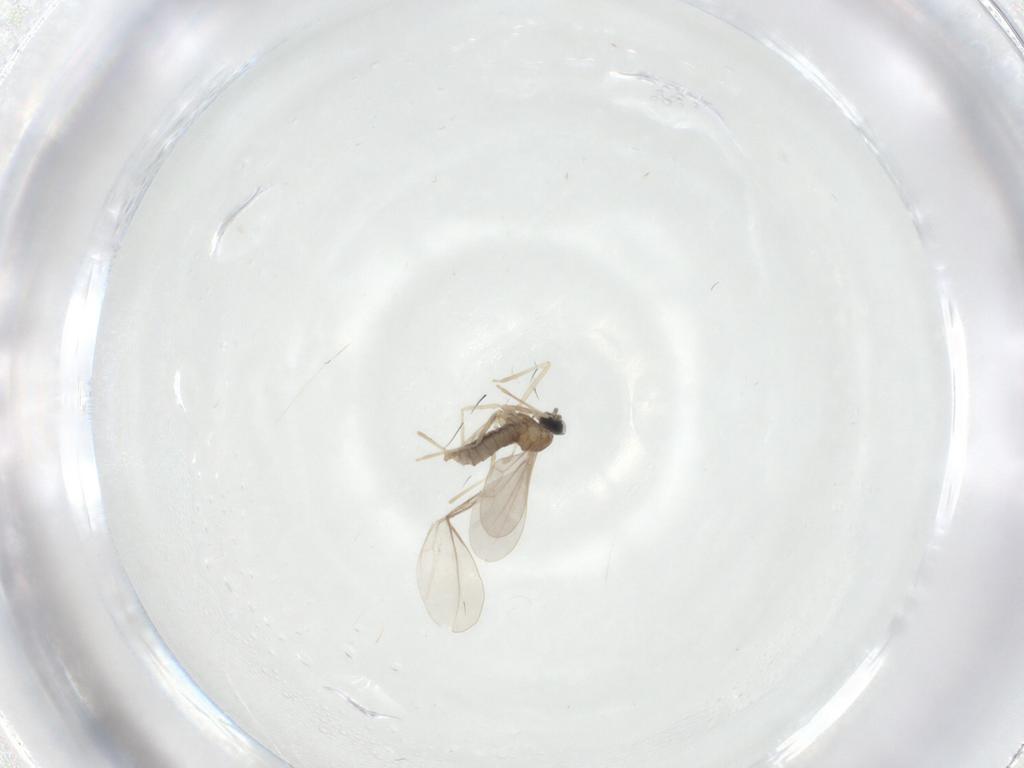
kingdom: Animalia
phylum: Arthropoda
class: Insecta
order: Diptera
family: Cecidomyiidae
